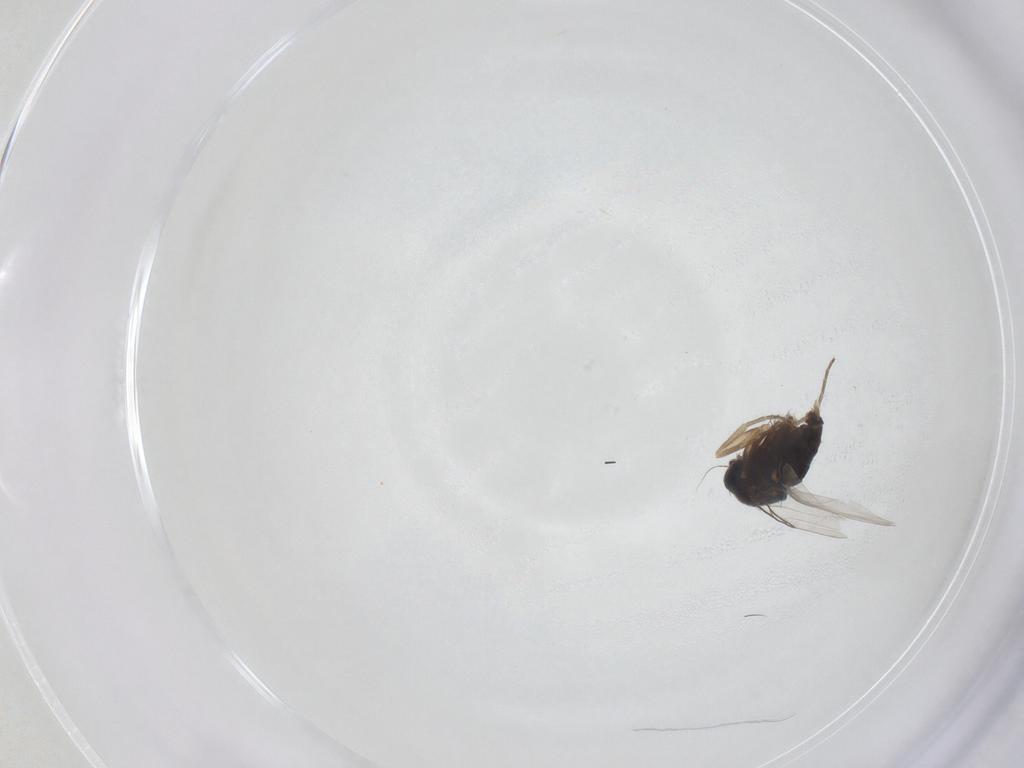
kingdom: Animalia
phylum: Arthropoda
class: Insecta
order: Diptera
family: Phoridae
